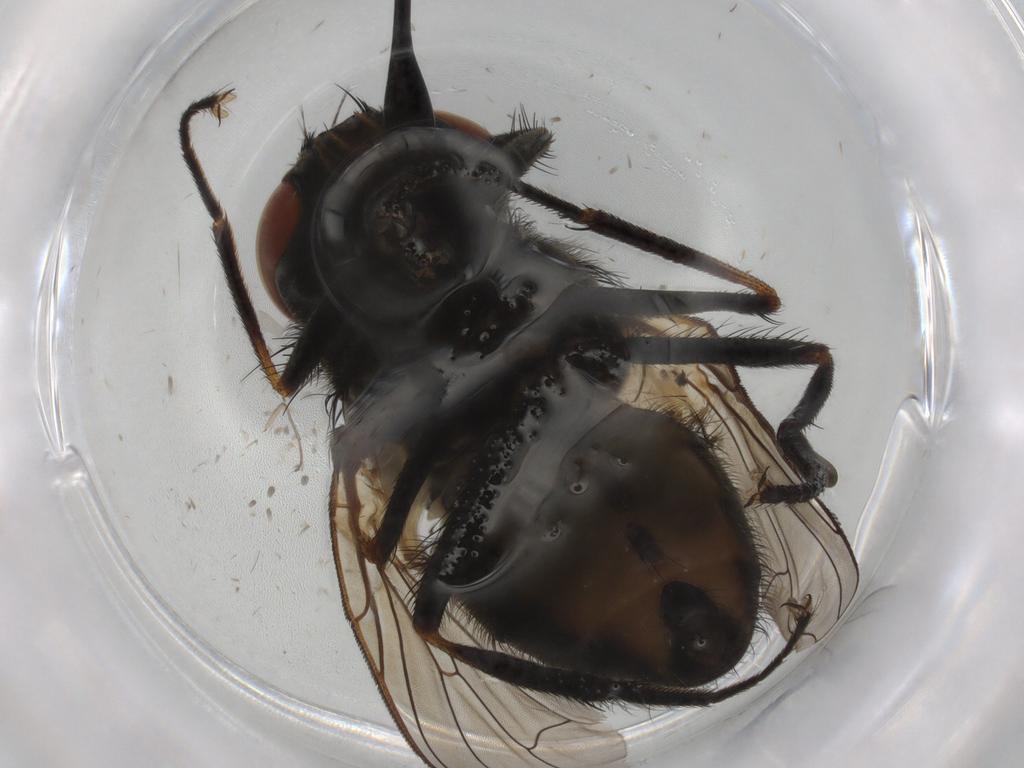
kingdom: Animalia
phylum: Arthropoda
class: Insecta
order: Diptera
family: Muscidae
